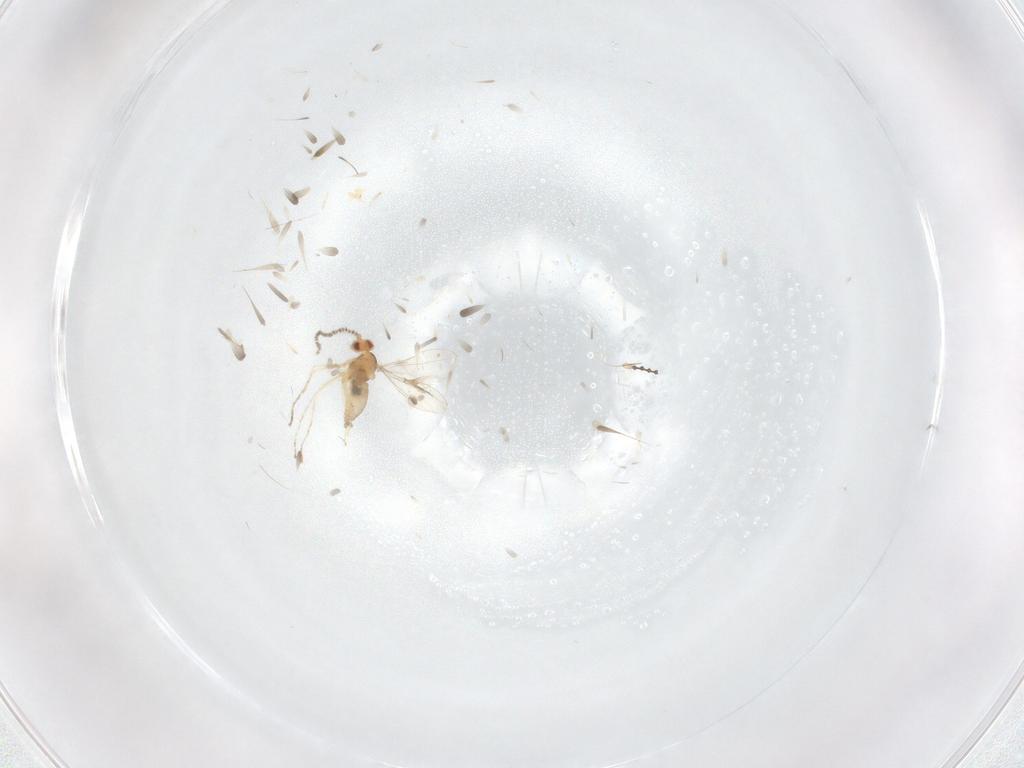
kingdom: Animalia
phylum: Arthropoda
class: Insecta
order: Diptera
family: Cecidomyiidae
